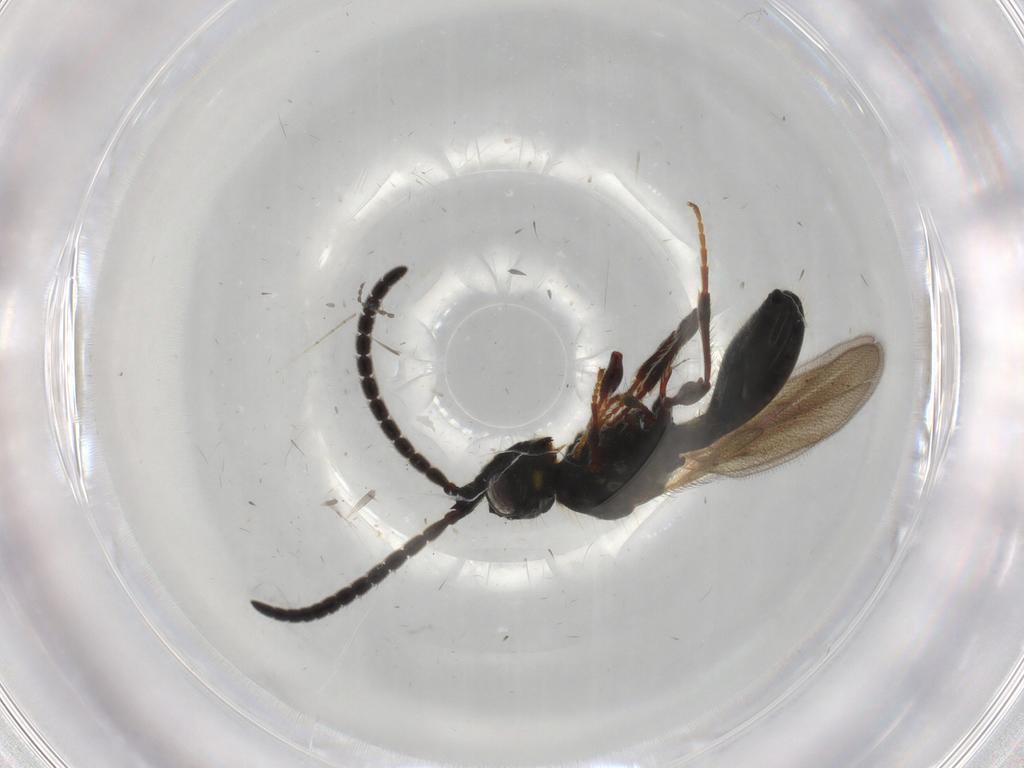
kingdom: Animalia
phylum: Arthropoda
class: Insecta
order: Hymenoptera
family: Diapriidae
